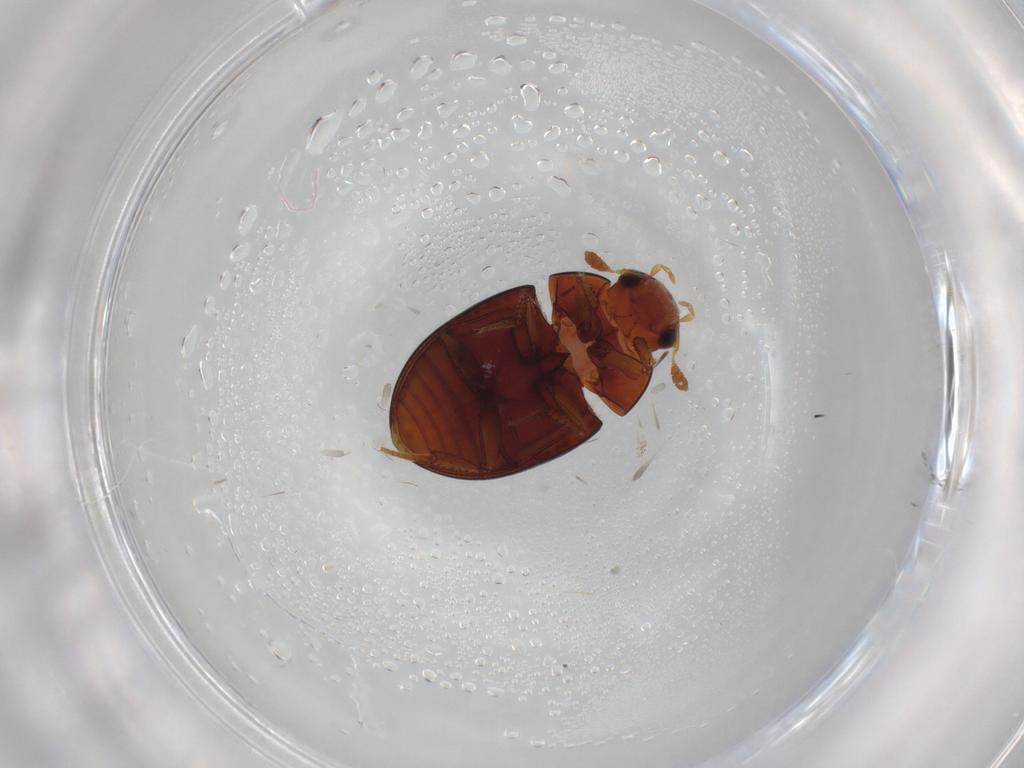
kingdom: Animalia
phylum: Arthropoda
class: Insecta
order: Coleoptera
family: Hydrophilidae
